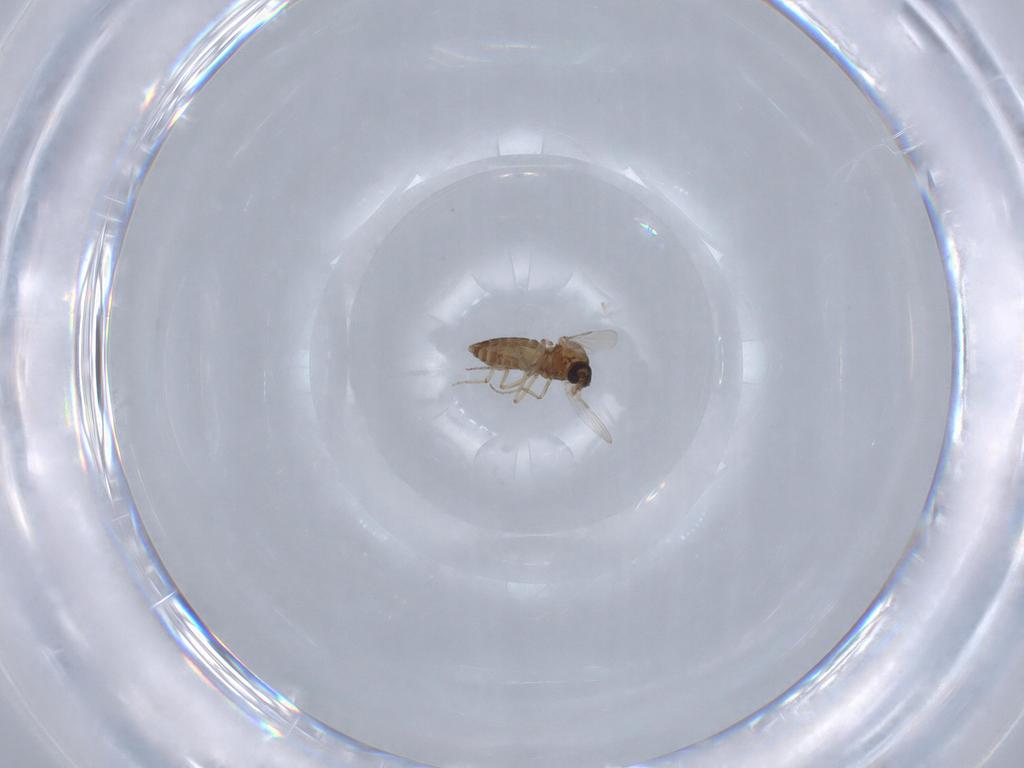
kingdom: Animalia
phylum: Arthropoda
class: Insecta
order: Diptera
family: Ceratopogonidae
